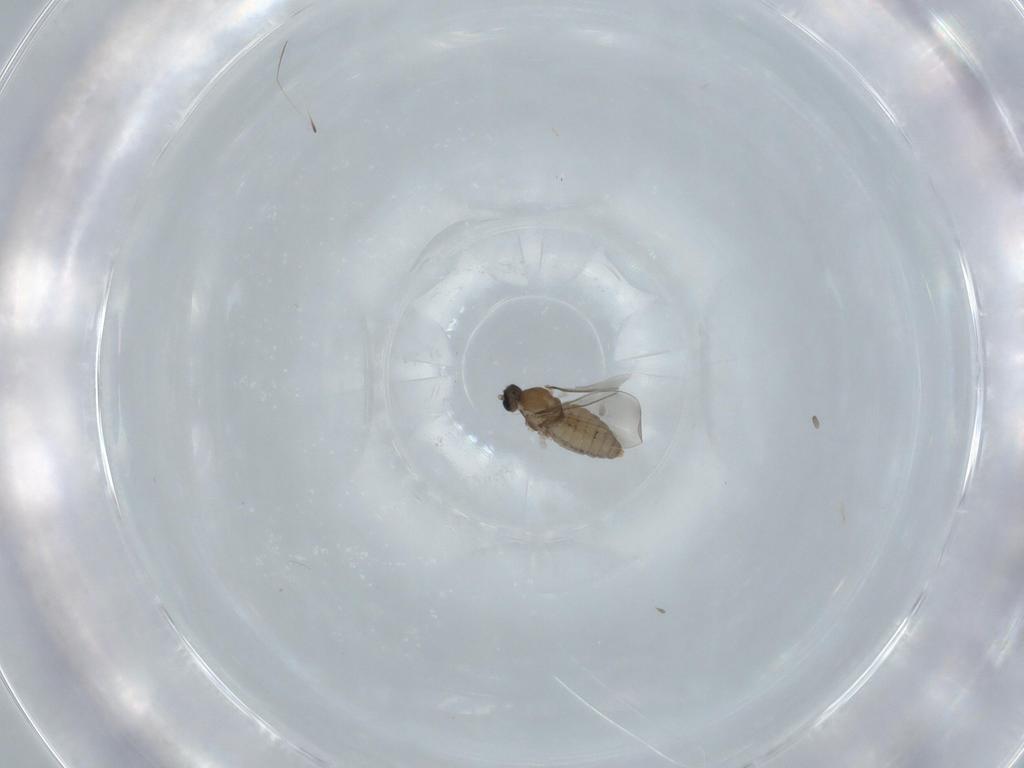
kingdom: Animalia
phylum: Arthropoda
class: Insecta
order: Diptera
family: Cecidomyiidae
